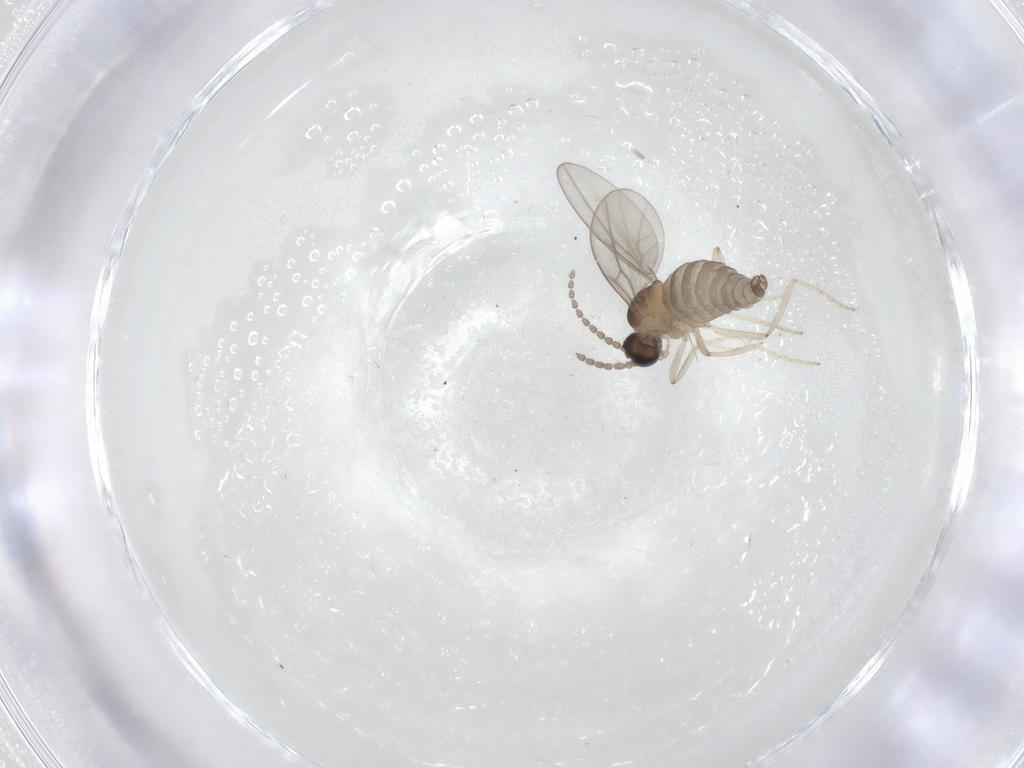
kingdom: Animalia
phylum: Arthropoda
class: Insecta
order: Diptera
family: Cecidomyiidae
